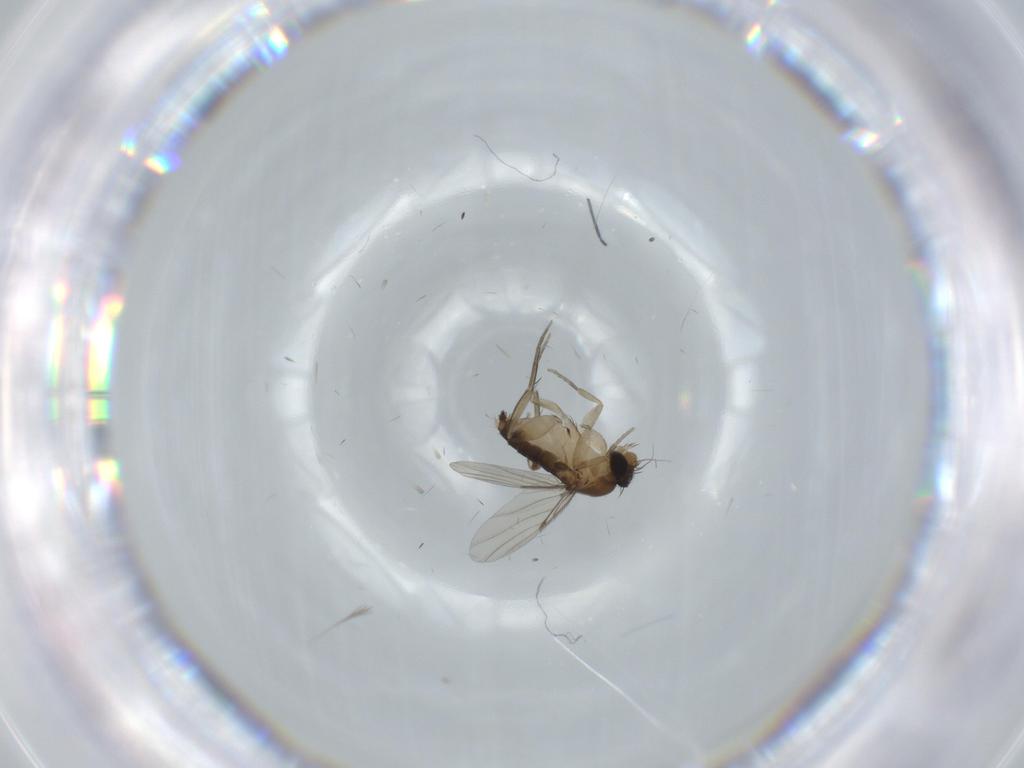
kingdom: Animalia
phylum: Arthropoda
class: Insecta
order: Diptera
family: Phoridae
